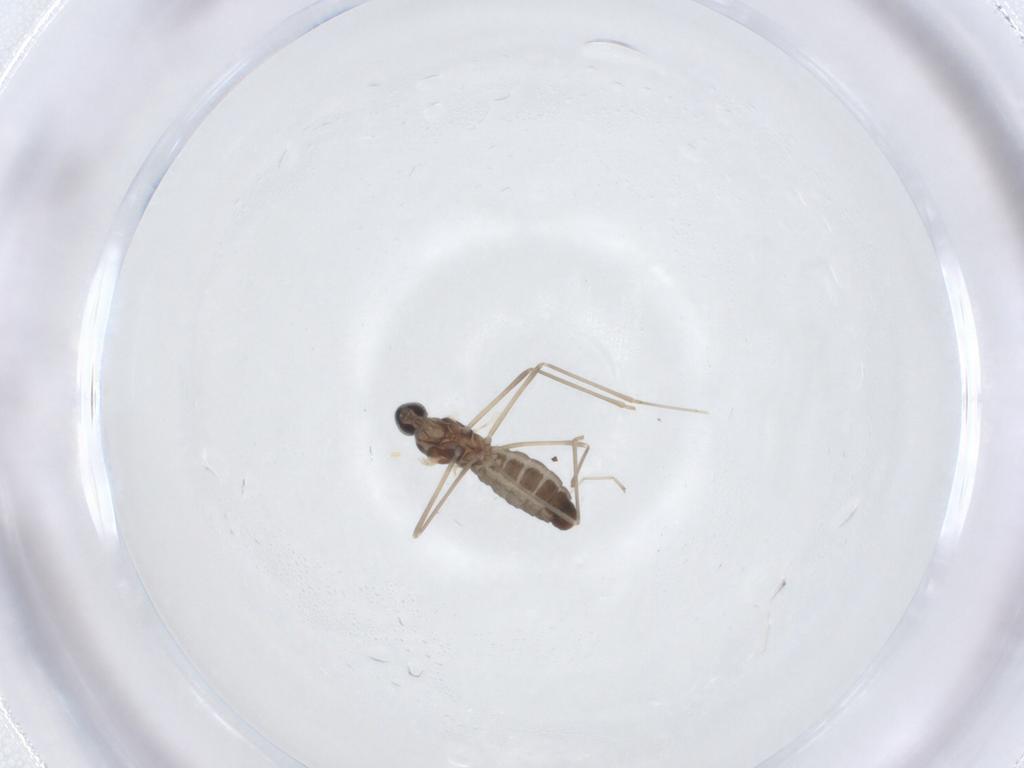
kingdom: Animalia
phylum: Arthropoda
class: Insecta
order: Diptera
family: Cecidomyiidae
